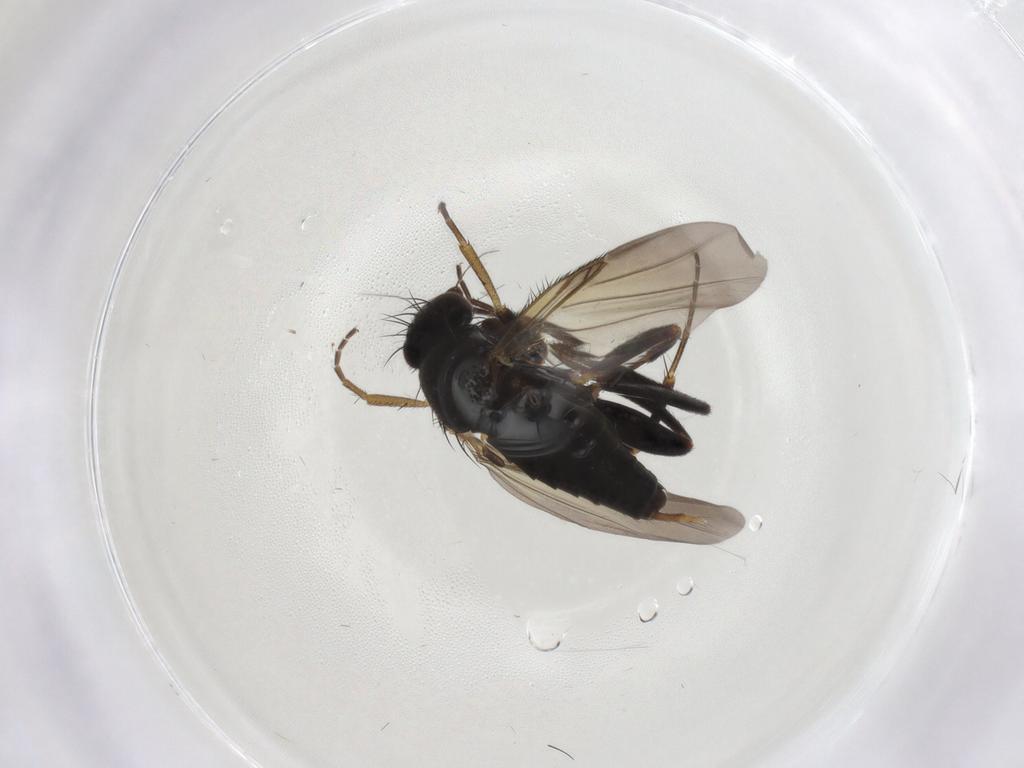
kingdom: Animalia
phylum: Arthropoda
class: Insecta
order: Diptera
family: Phoridae
